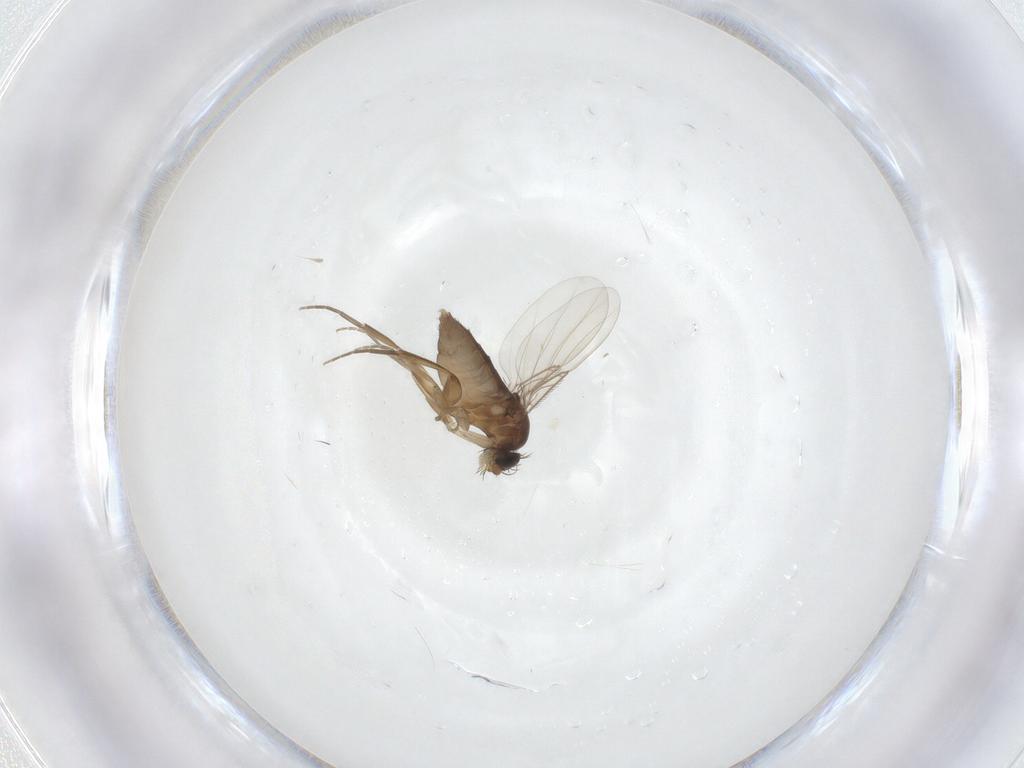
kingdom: Animalia
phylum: Arthropoda
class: Insecta
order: Diptera
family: Phoridae
